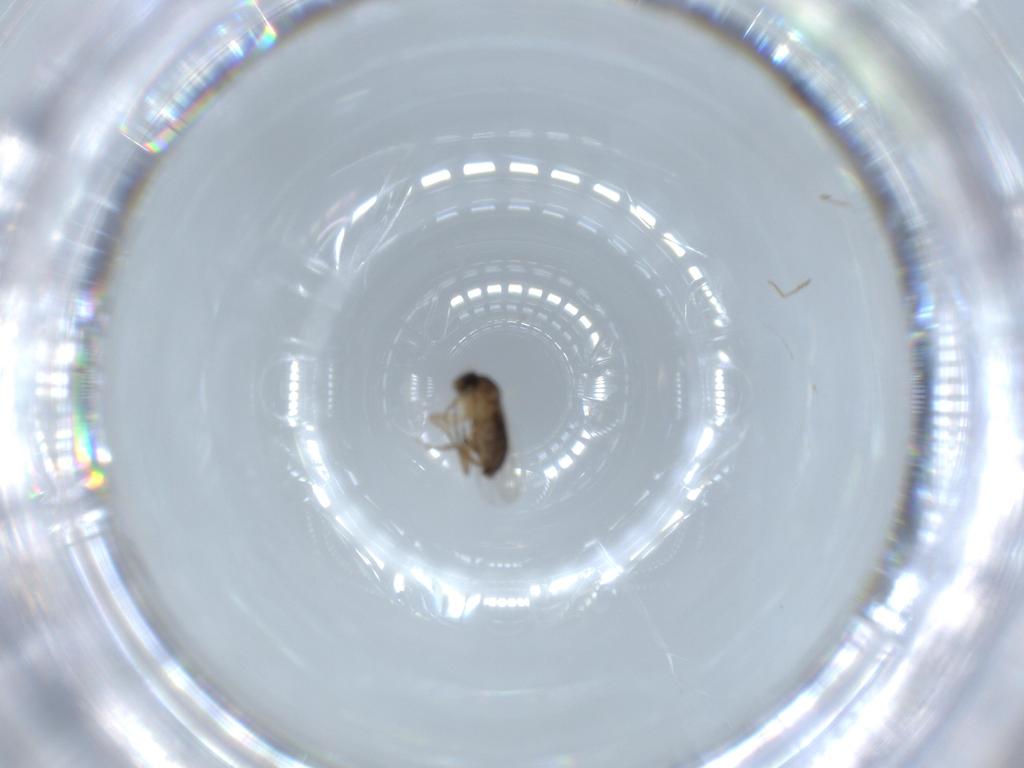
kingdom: Animalia
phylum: Arthropoda
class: Insecta
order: Diptera
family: Phoridae
